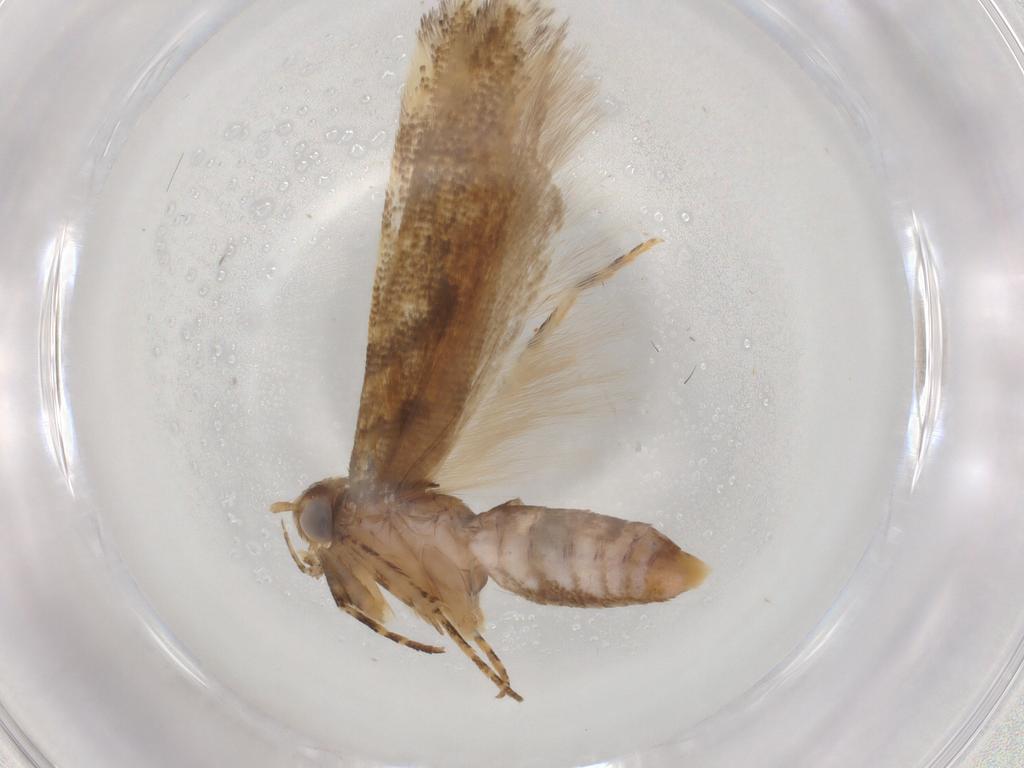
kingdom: Animalia
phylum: Arthropoda
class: Insecta
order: Lepidoptera
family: Gelechiidae
